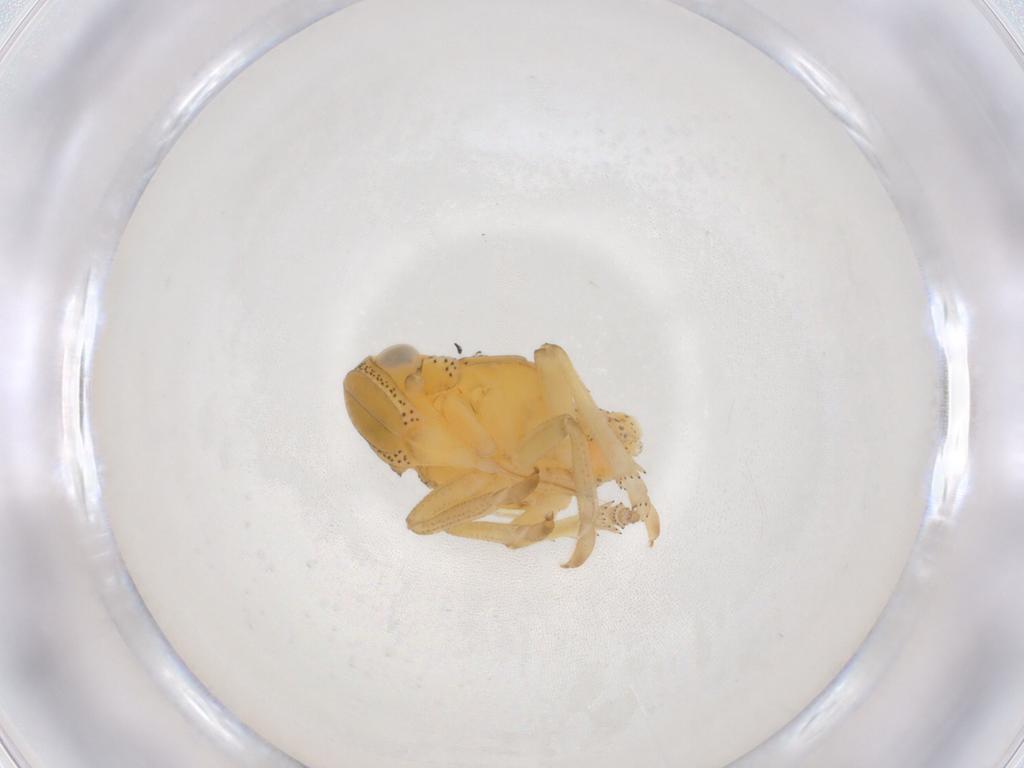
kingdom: Animalia
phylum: Arthropoda
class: Insecta
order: Hemiptera
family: Tropiduchidae
